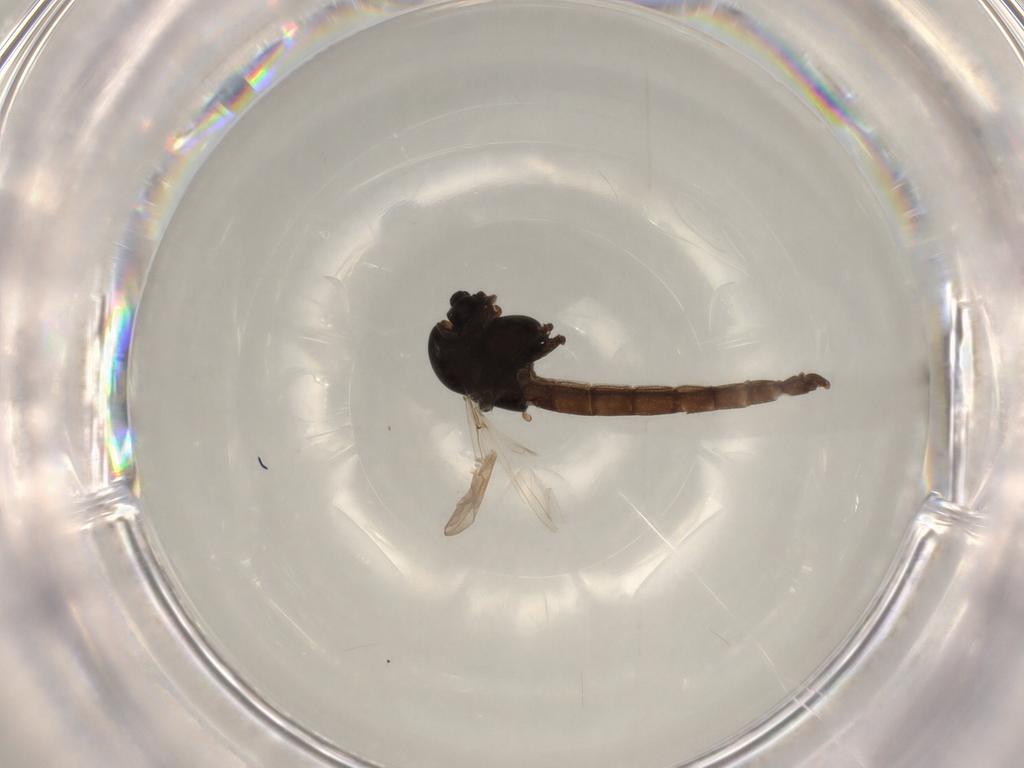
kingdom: Animalia
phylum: Arthropoda
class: Insecta
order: Diptera
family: Chironomidae
